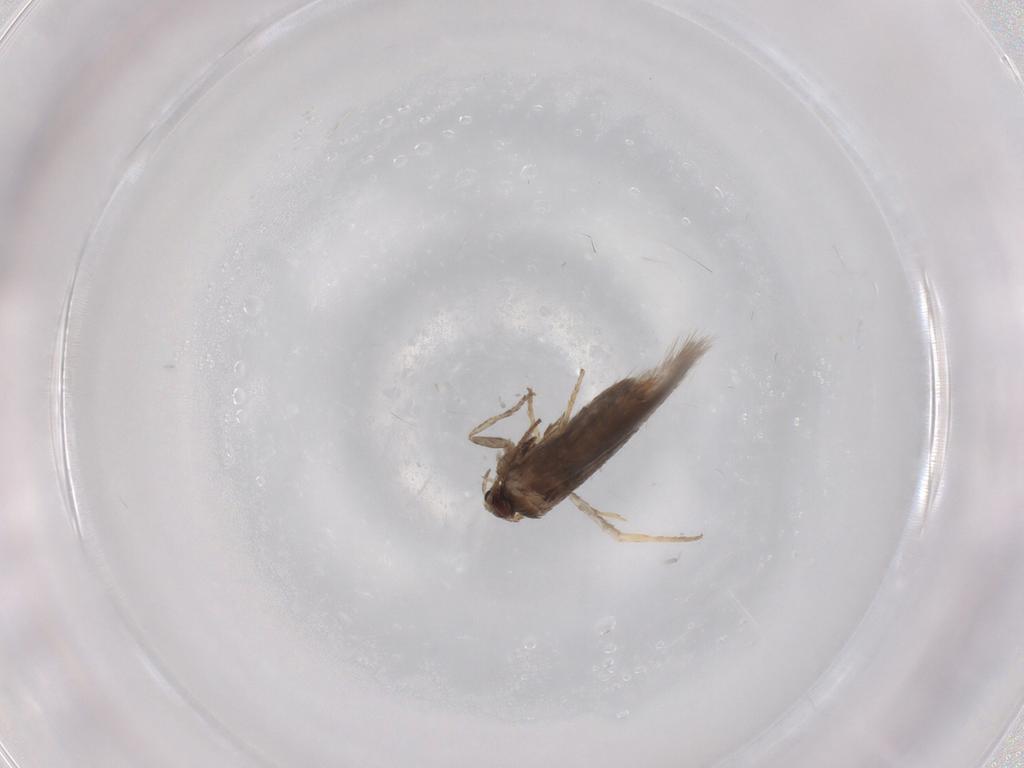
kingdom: Animalia
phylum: Arthropoda
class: Insecta
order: Lepidoptera
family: Nepticulidae
